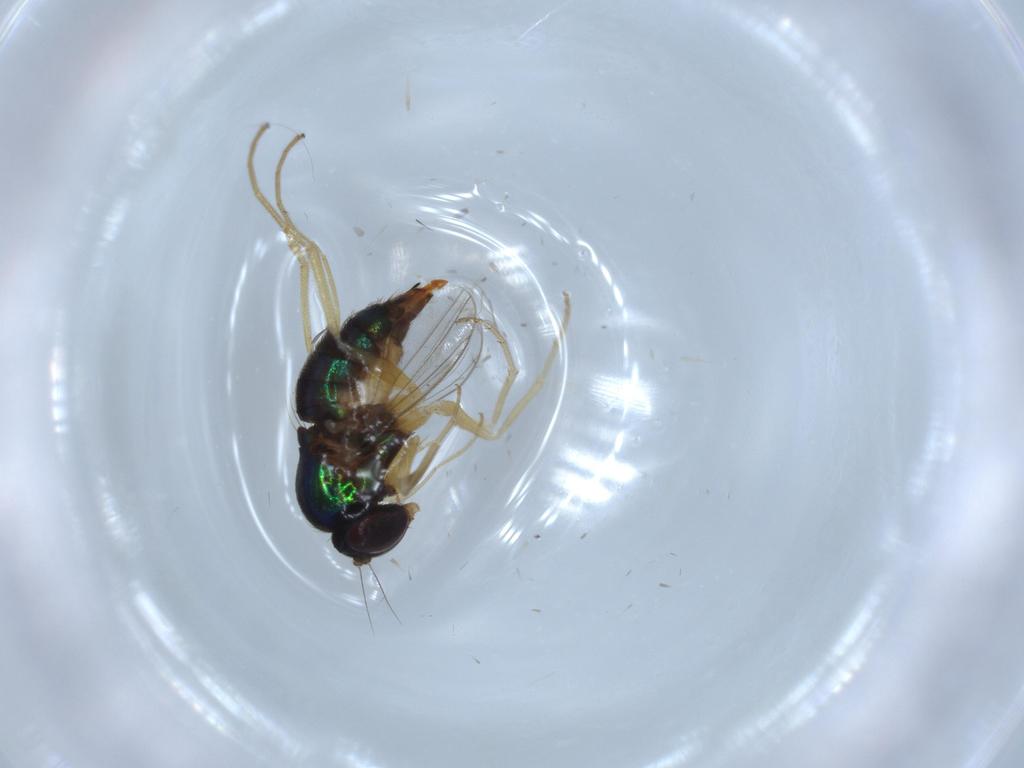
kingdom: Animalia
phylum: Arthropoda
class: Insecta
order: Diptera
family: Dolichopodidae
